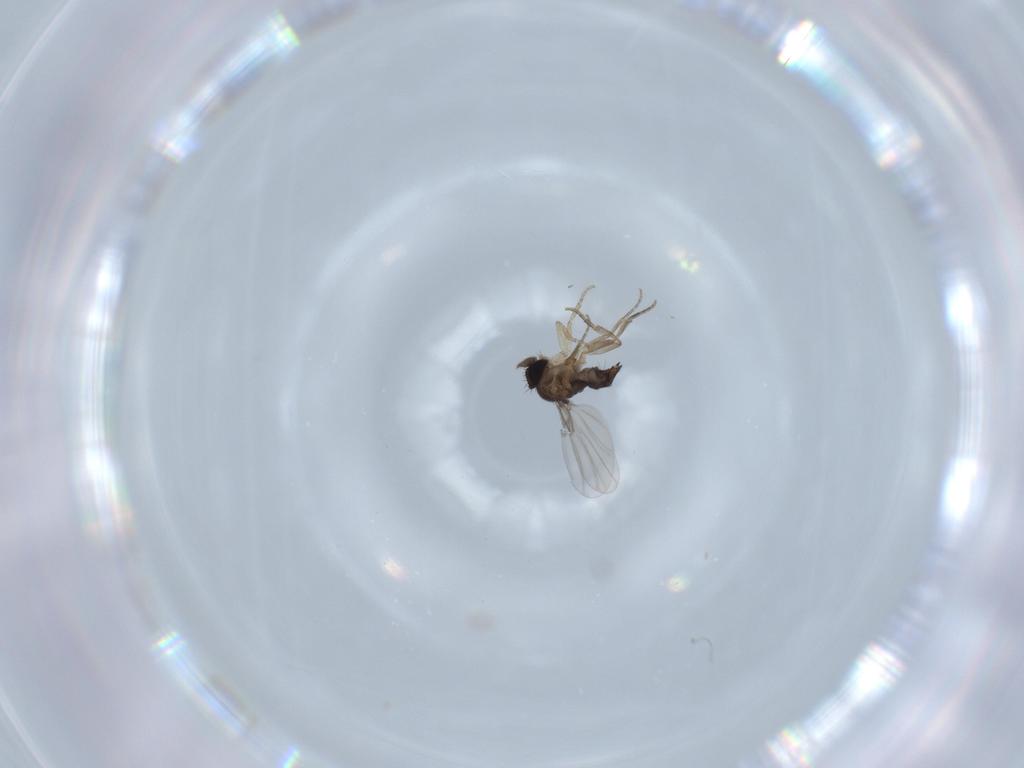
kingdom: Animalia
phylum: Arthropoda
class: Insecta
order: Diptera
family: Phoridae
